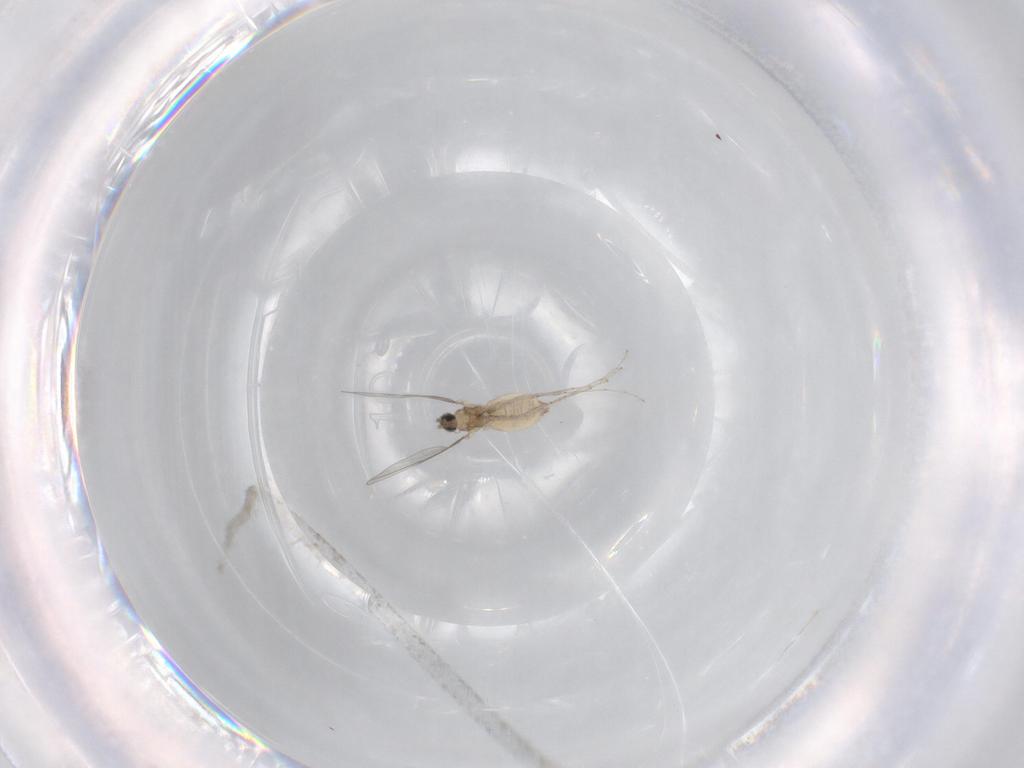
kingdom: Animalia
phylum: Arthropoda
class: Insecta
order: Diptera
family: Cecidomyiidae
